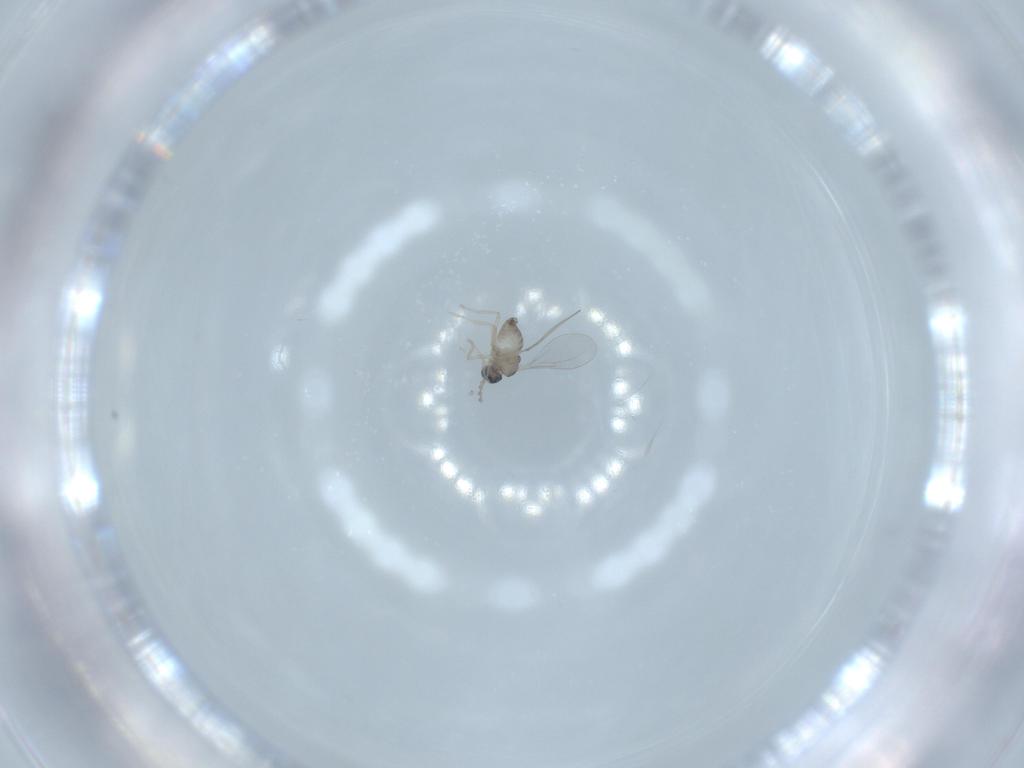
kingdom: Animalia
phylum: Arthropoda
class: Insecta
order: Diptera
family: Cecidomyiidae
